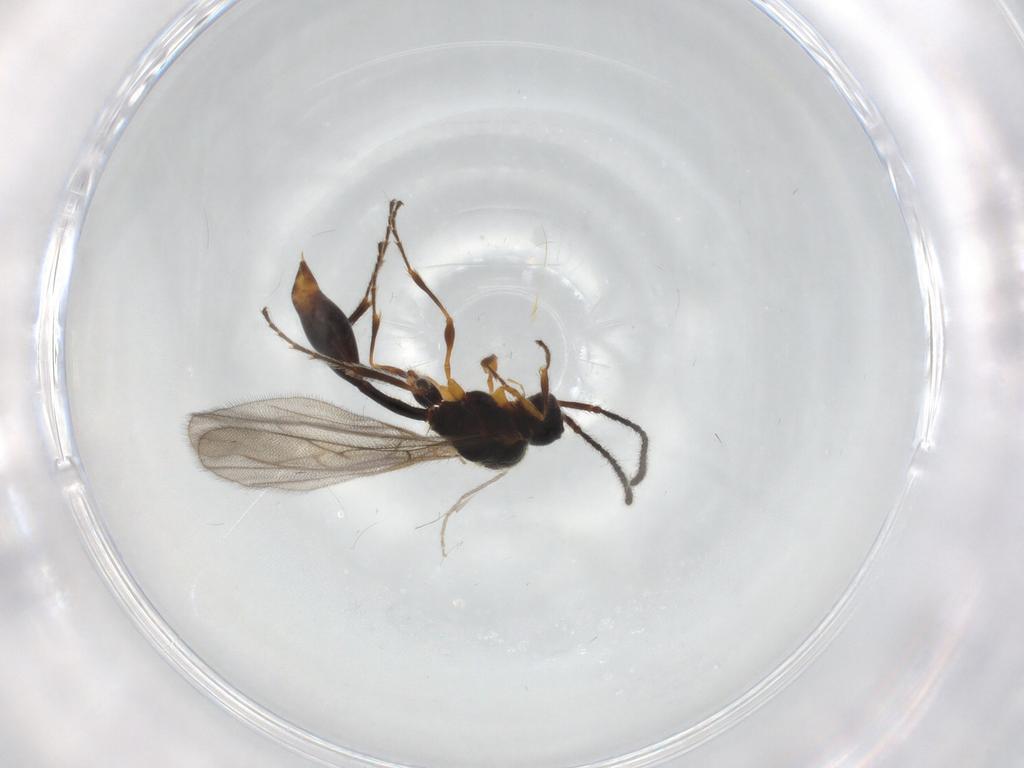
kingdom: Animalia
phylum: Arthropoda
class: Insecta
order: Hymenoptera
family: Diapriidae
